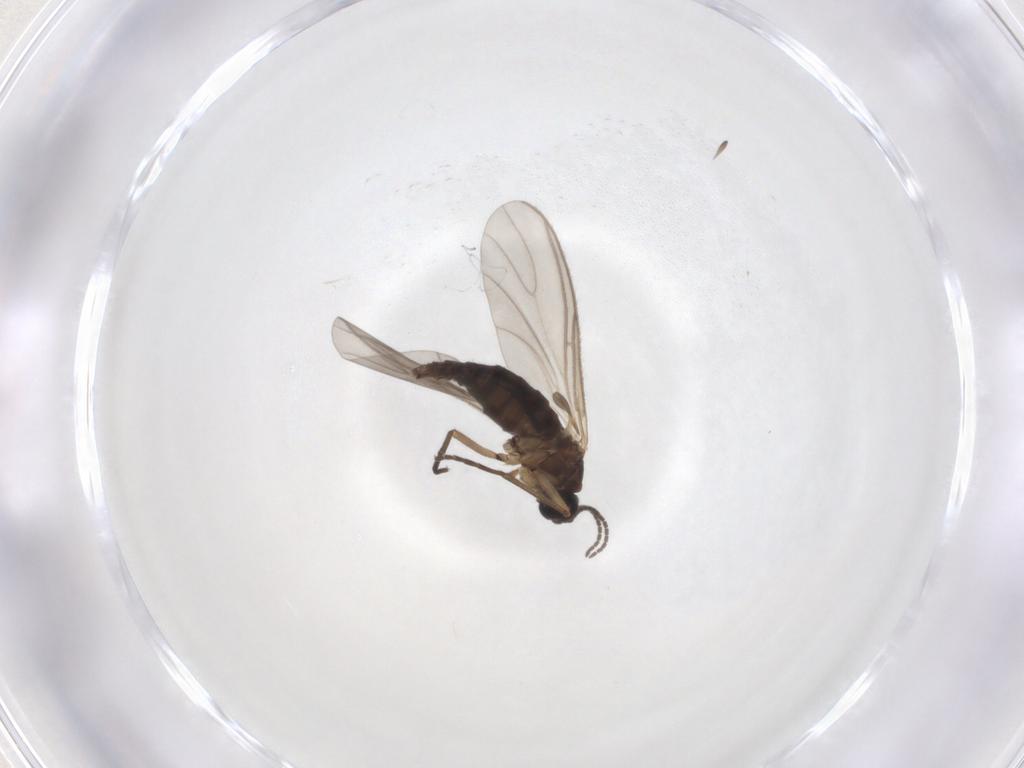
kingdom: Animalia
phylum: Arthropoda
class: Insecta
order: Diptera
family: Sciaridae
